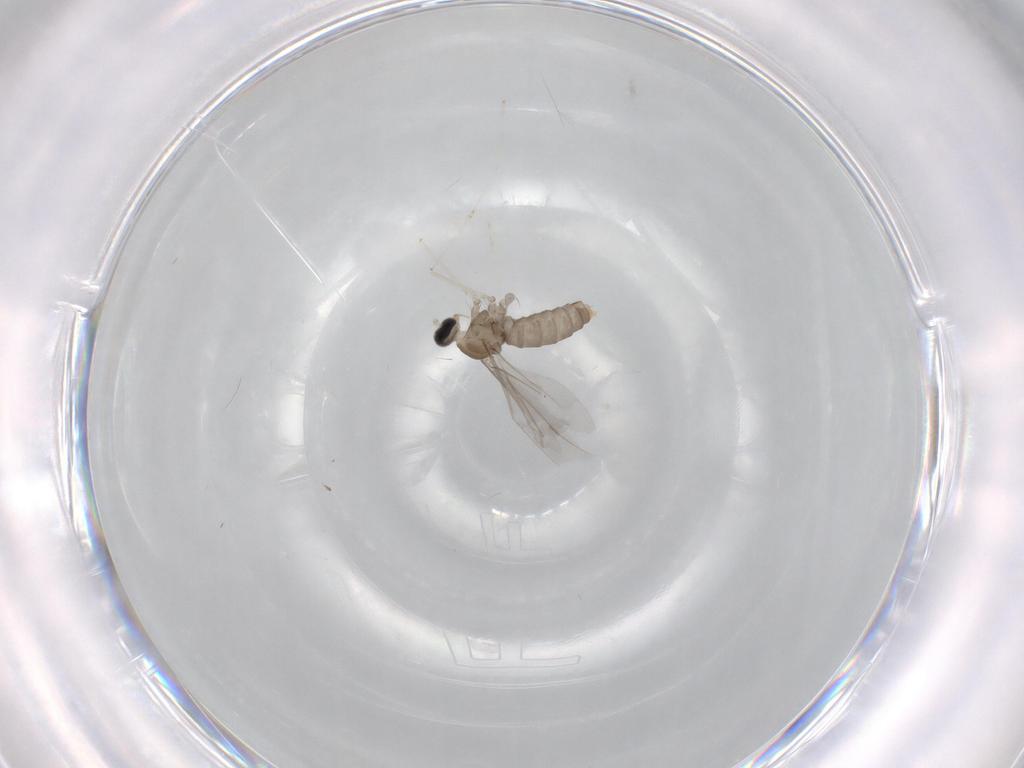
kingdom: Animalia
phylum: Arthropoda
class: Insecta
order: Diptera
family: Cecidomyiidae
